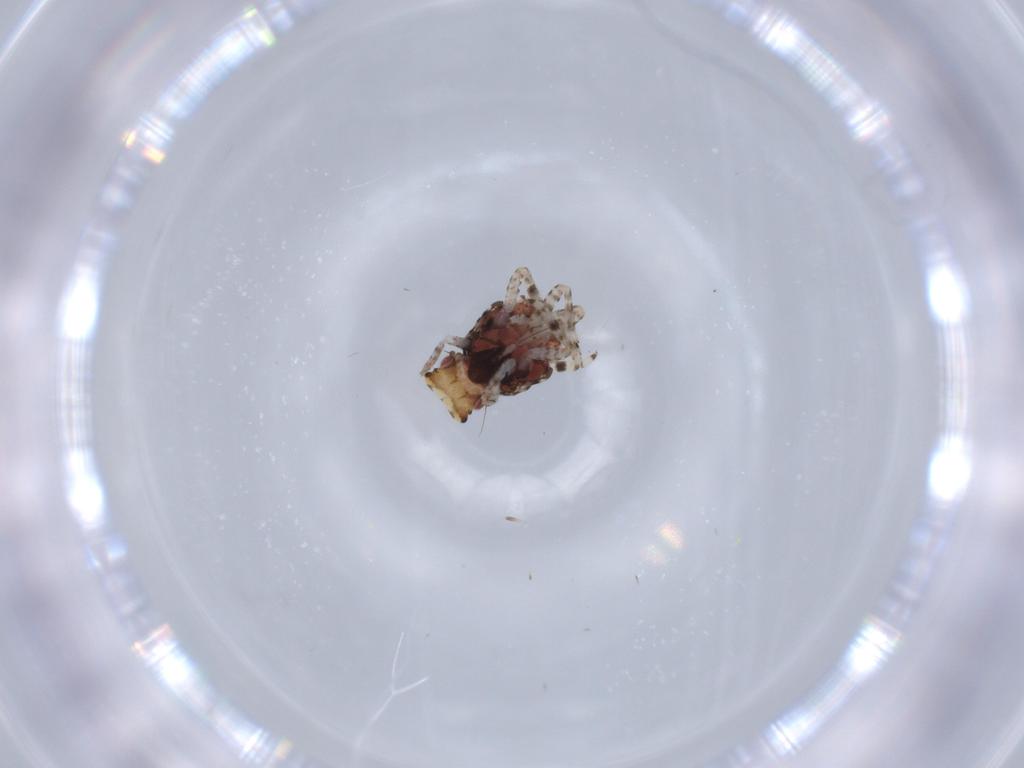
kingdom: Animalia
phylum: Arthropoda
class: Insecta
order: Hemiptera
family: Fulgoroidea_incertae_sedis
